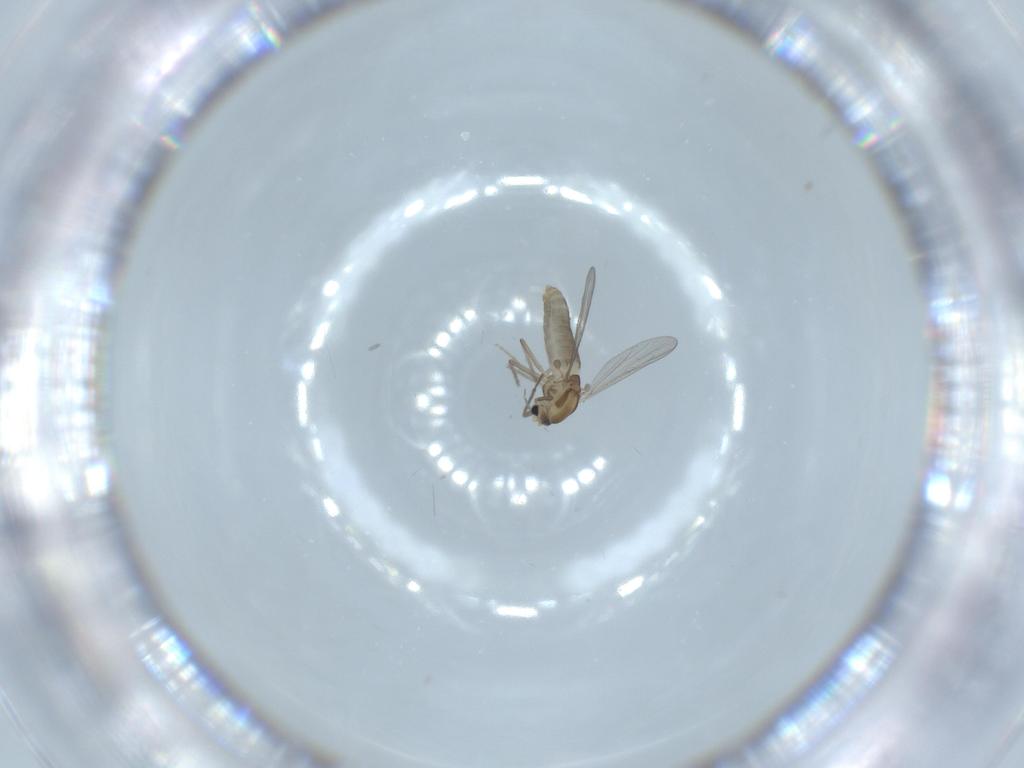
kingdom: Animalia
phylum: Arthropoda
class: Insecta
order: Diptera
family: Chironomidae
